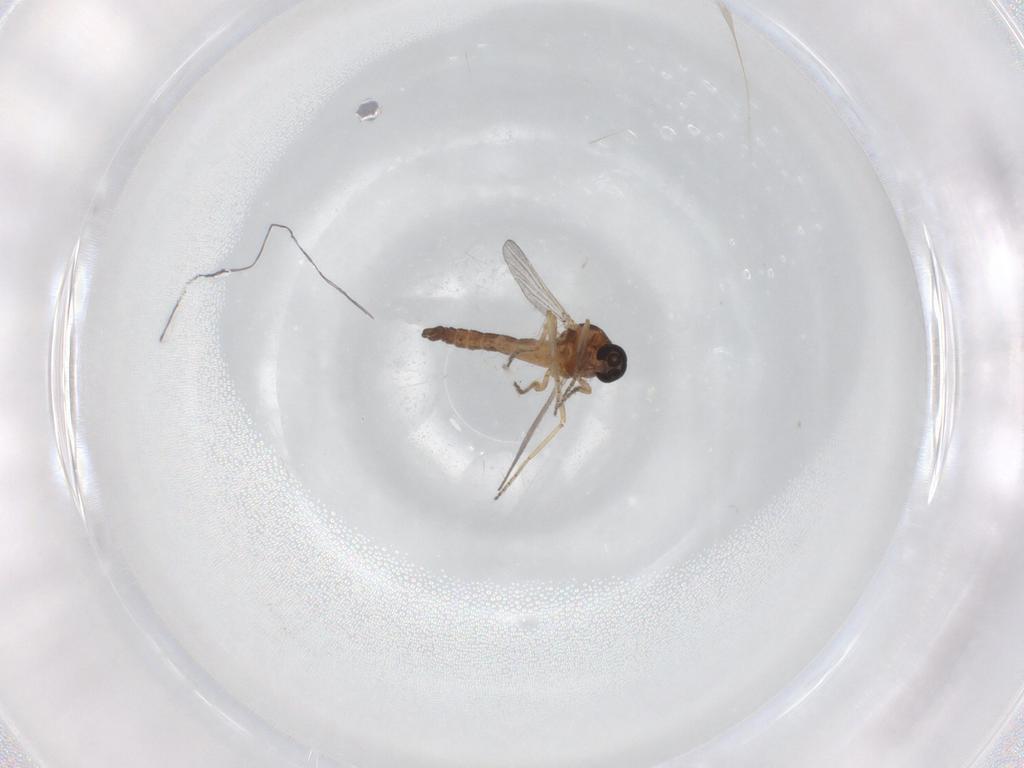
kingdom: Animalia
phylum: Arthropoda
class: Insecta
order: Diptera
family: Ceratopogonidae
